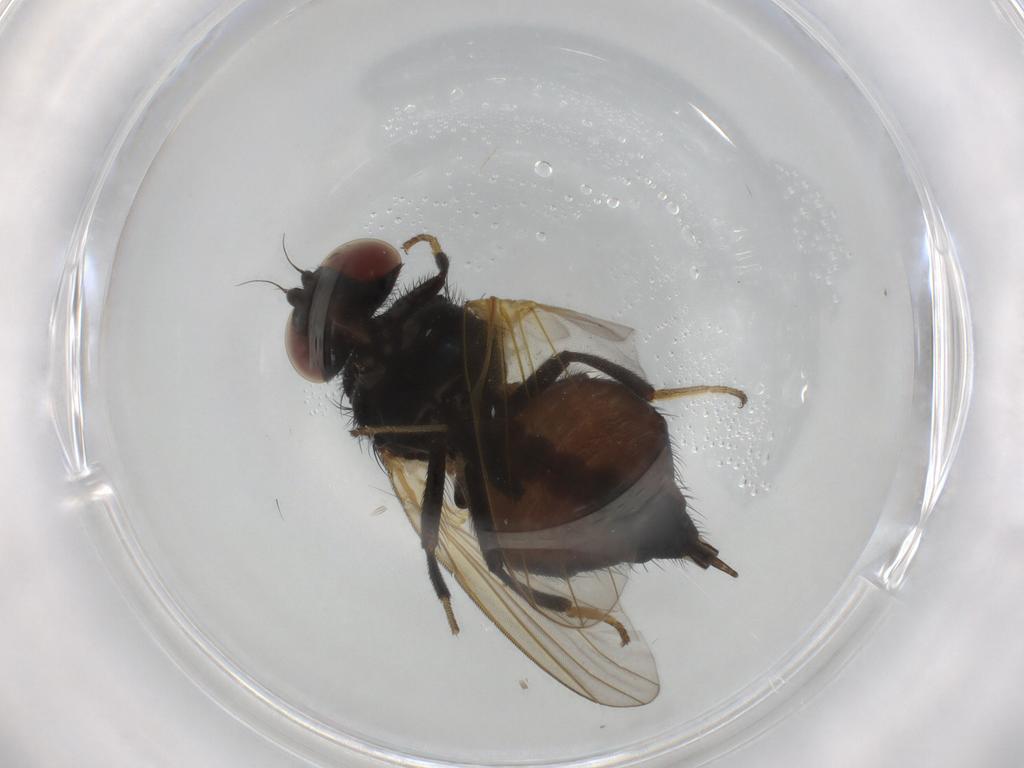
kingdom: Animalia
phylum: Arthropoda
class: Insecta
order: Diptera
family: Lonchaeidae
